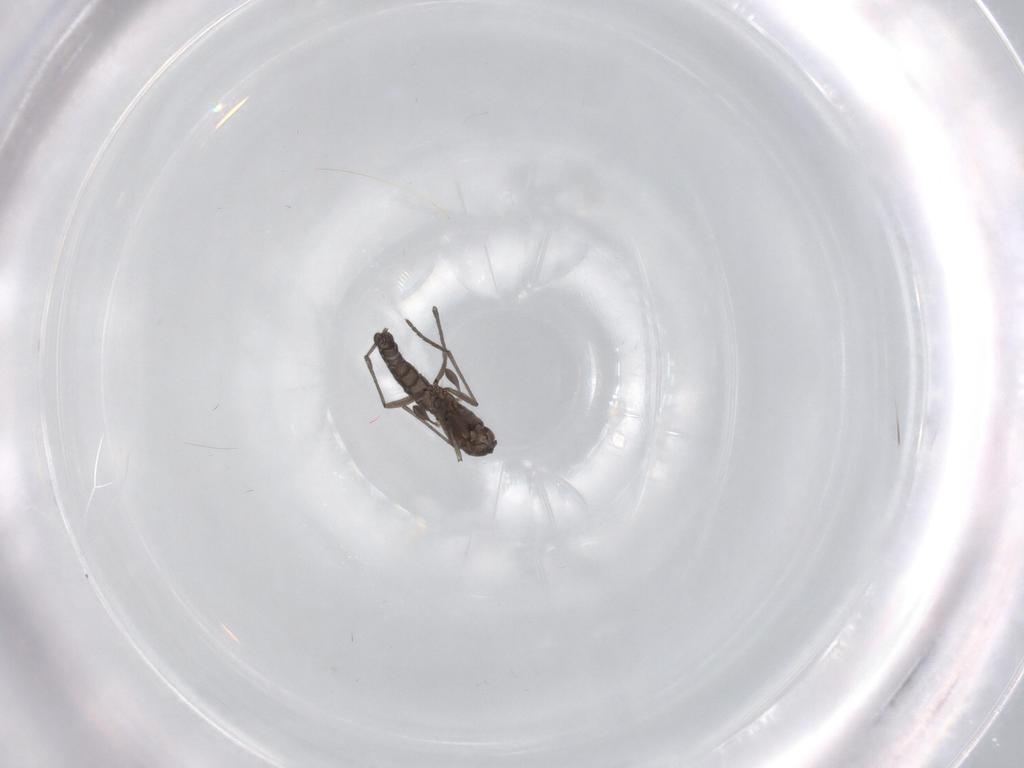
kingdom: Animalia
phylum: Arthropoda
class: Insecta
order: Diptera
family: Sciaridae
